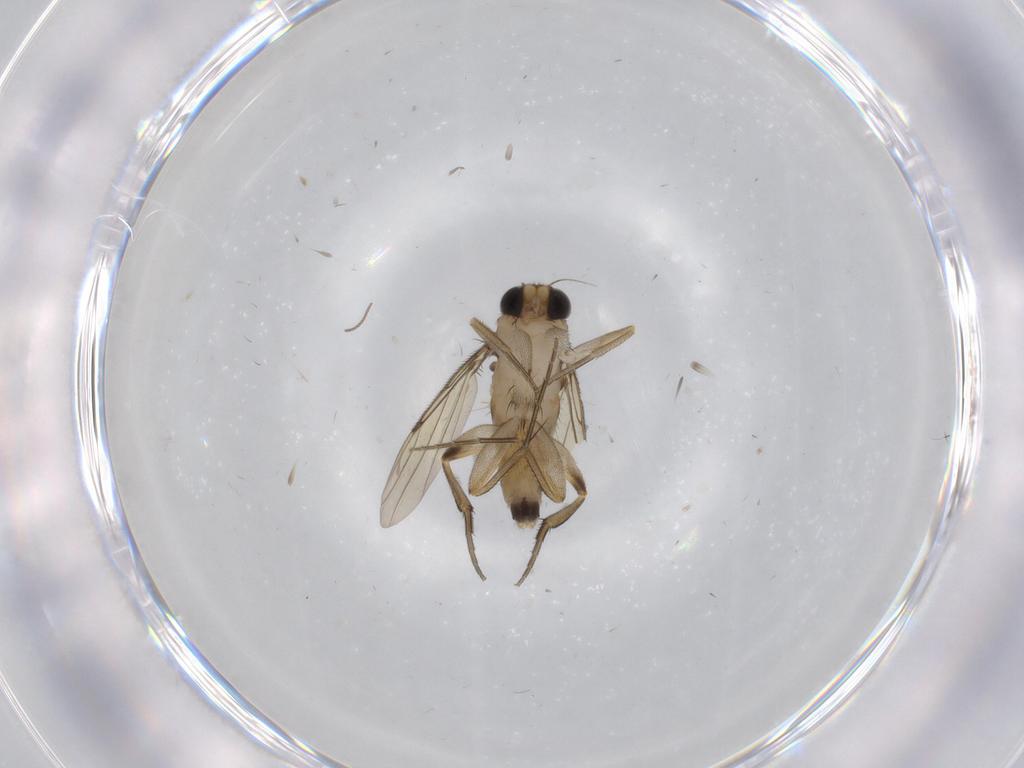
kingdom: Animalia
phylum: Arthropoda
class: Insecta
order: Diptera
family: Phoridae
